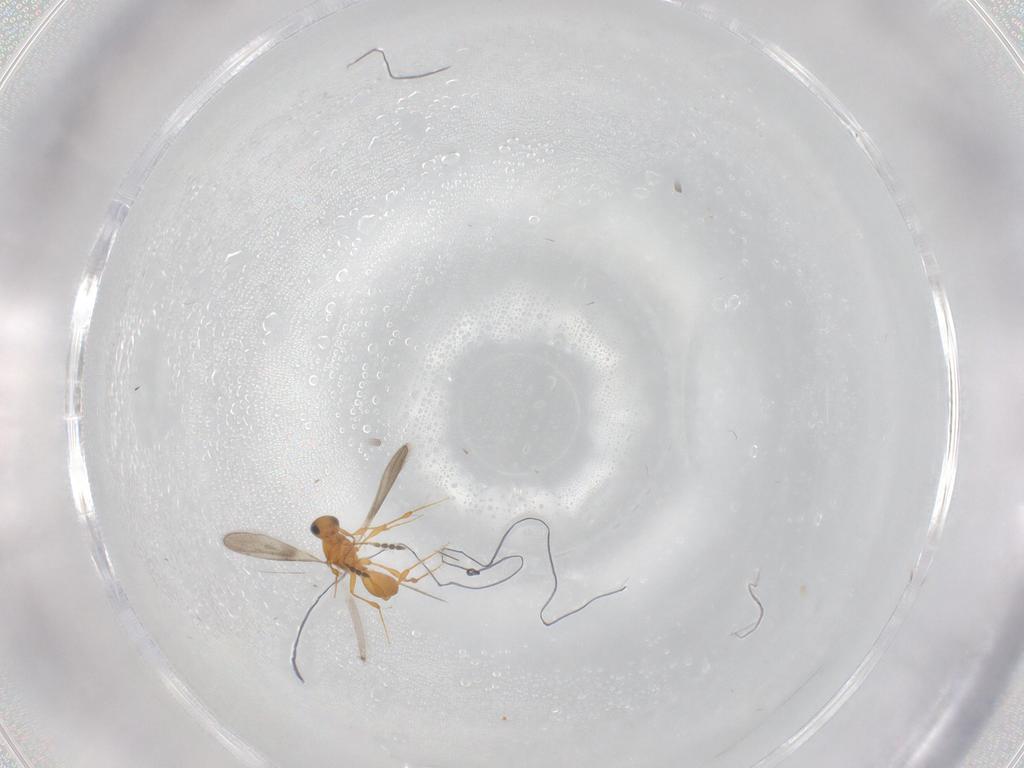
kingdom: Animalia
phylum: Arthropoda
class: Insecta
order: Hymenoptera
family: Platygastridae
